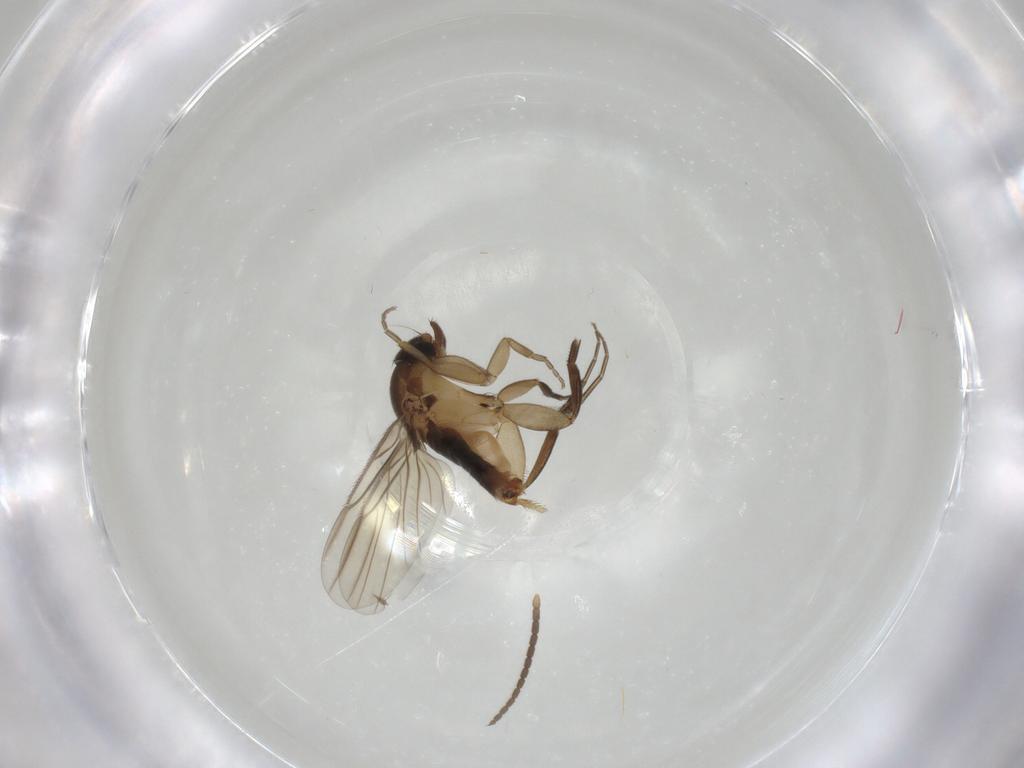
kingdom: Animalia
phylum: Arthropoda
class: Insecta
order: Diptera
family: Phoridae
